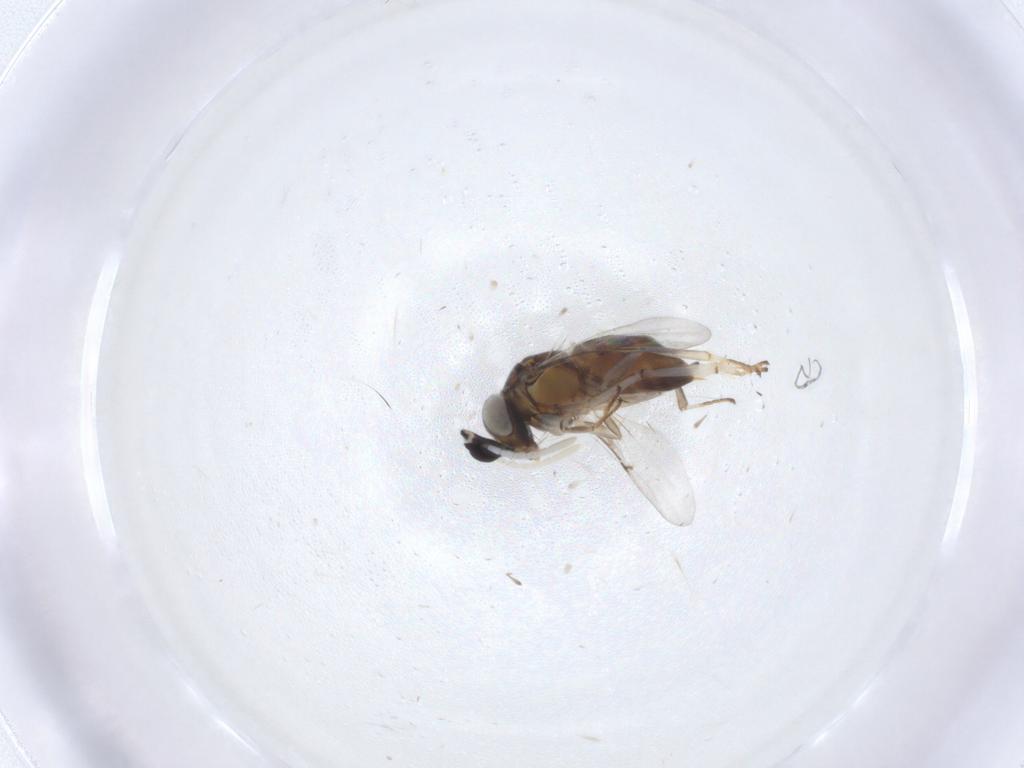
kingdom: Animalia
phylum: Arthropoda
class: Insecta
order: Hymenoptera
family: Encyrtidae
